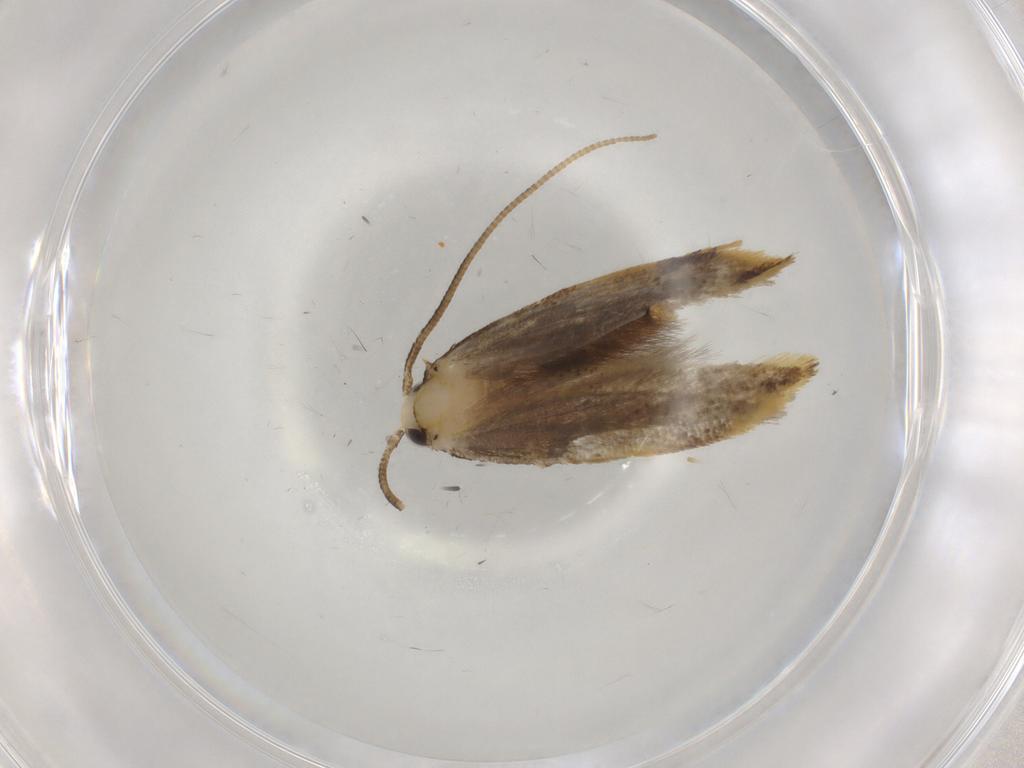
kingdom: Animalia
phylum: Arthropoda
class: Insecta
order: Lepidoptera
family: Tineidae
